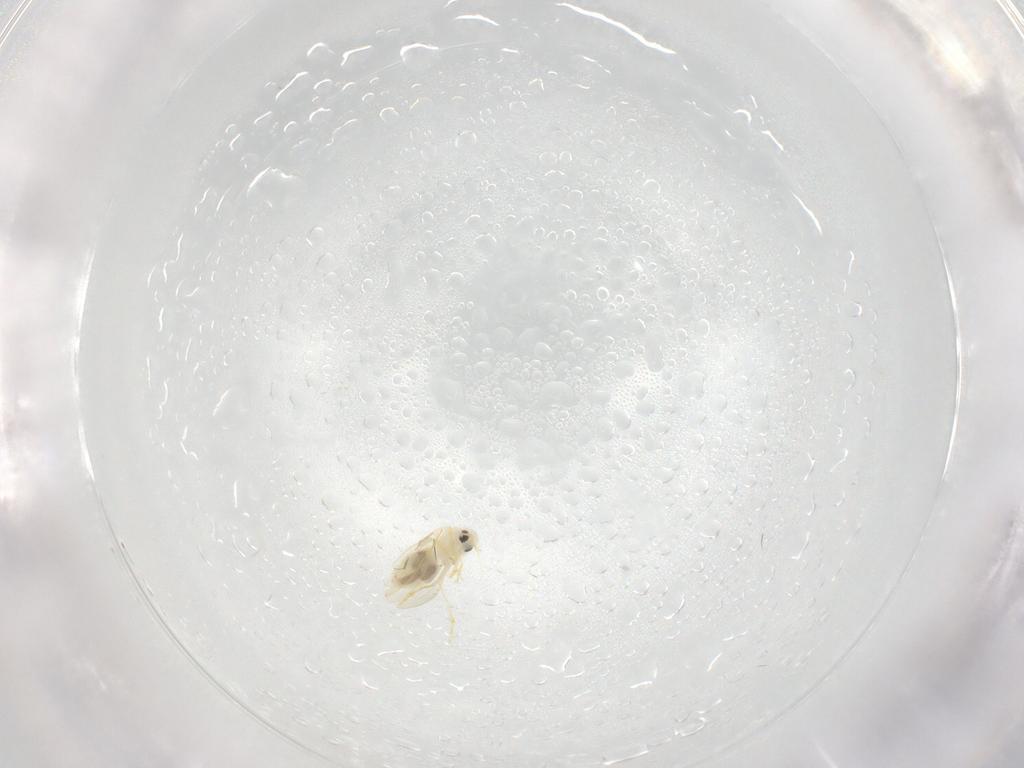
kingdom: Animalia
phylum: Arthropoda
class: Insecta
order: Hemiptera
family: Aleyrodidae
